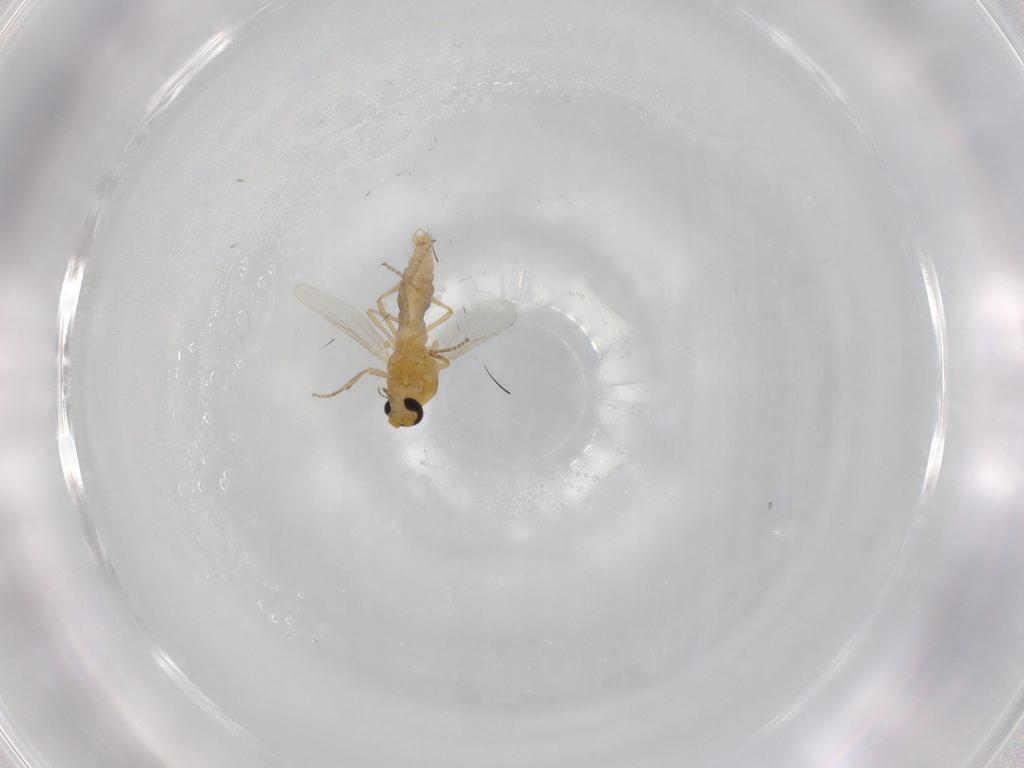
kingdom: Animalia
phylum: Arthropoda
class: Insecta
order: Diptera
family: Ceratopogonidae
